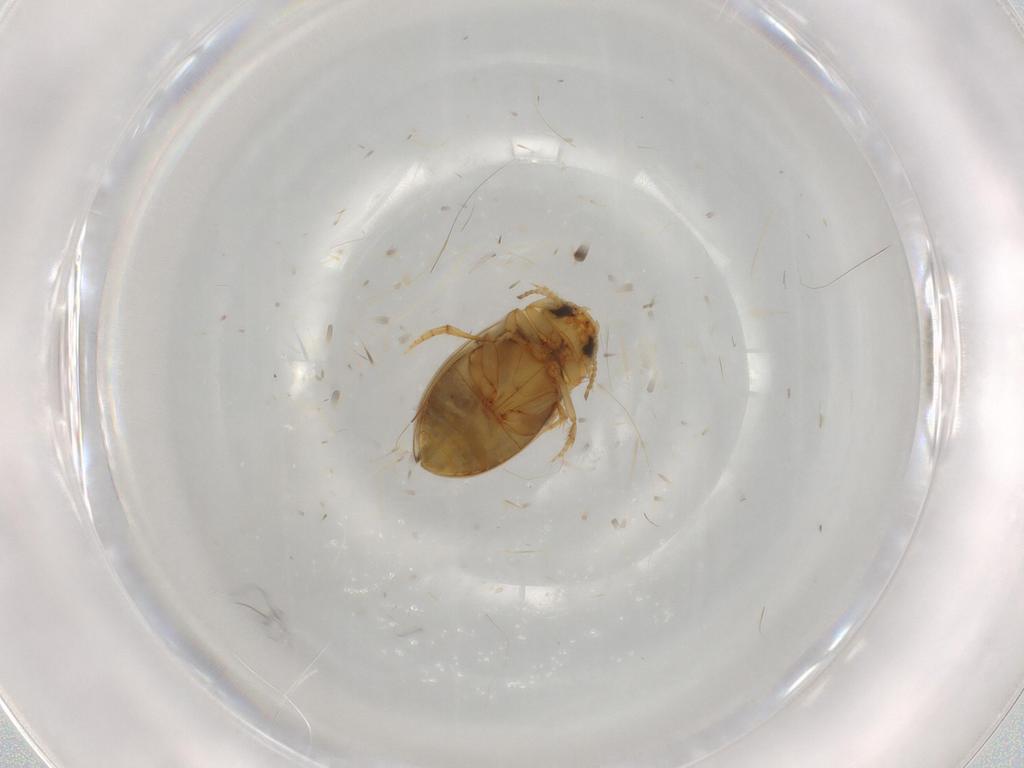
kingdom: Animalia
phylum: Arthropoda
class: Insecta
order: Coleoptera
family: Dytiscidae
